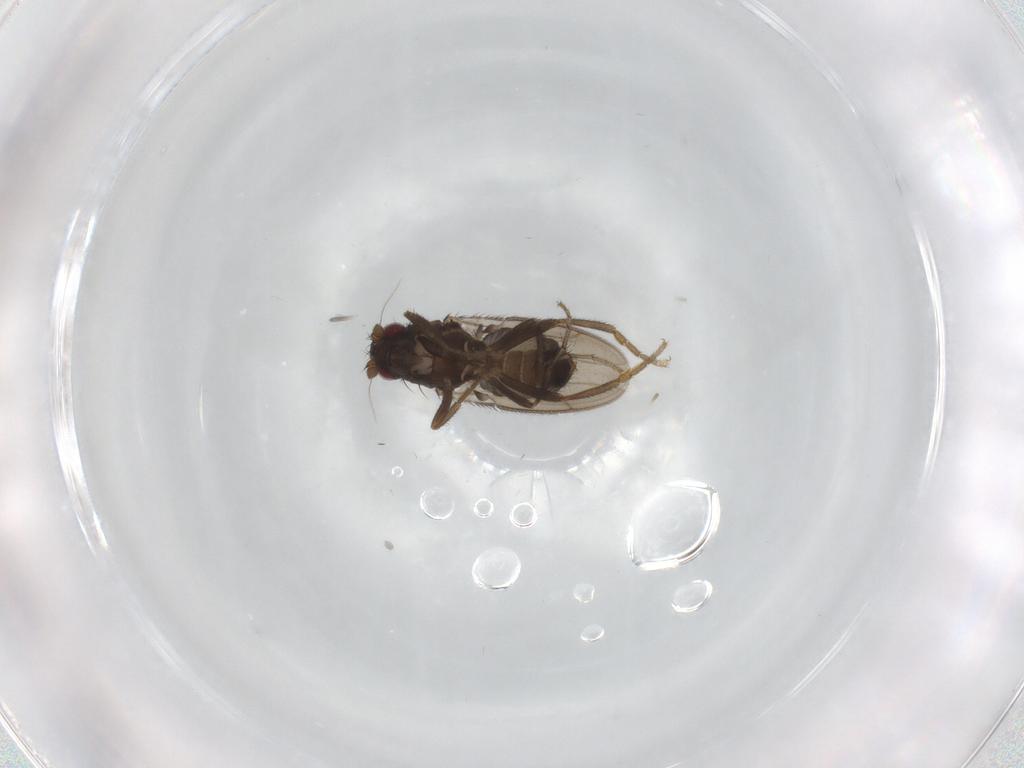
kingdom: Animalia
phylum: Arthropoda
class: Insecta
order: Diptera
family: Sphaeroceridae
